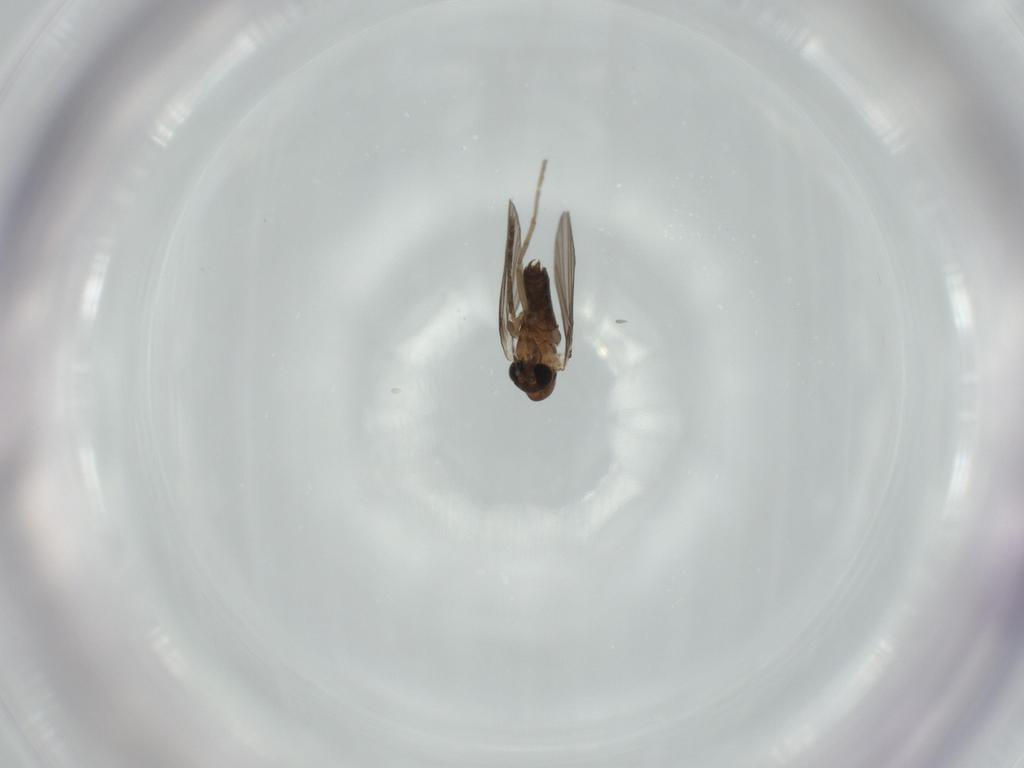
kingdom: Animalia
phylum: Arthropoda
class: Insecta
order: Diptera
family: Psychodidae
